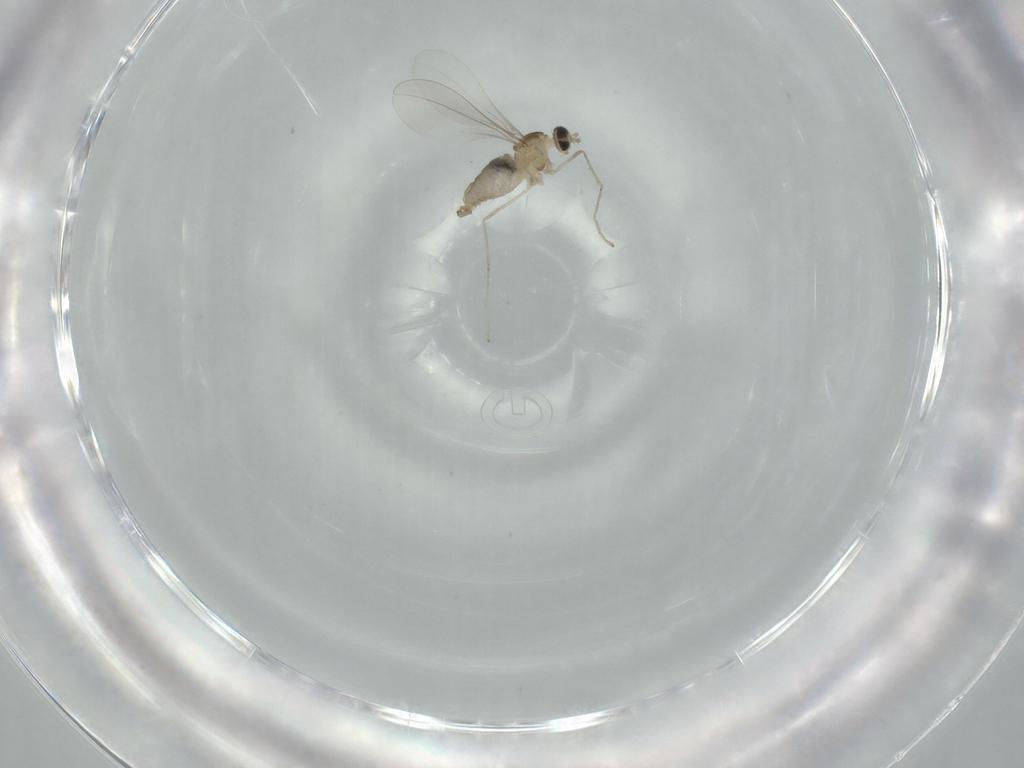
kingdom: Animalia
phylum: Arthropoda
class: Insecta
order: Diptera
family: Cecidomyiidae
